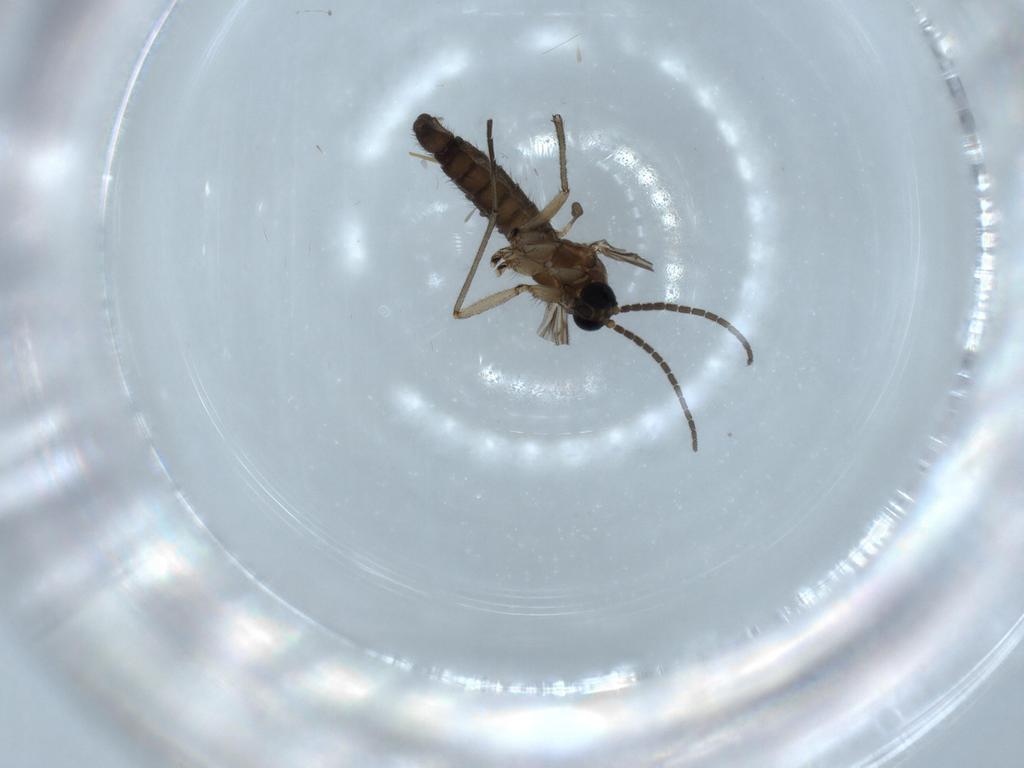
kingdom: Animalia
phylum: Arthropoda
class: Insecta
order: Diptera
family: Sciaridae
